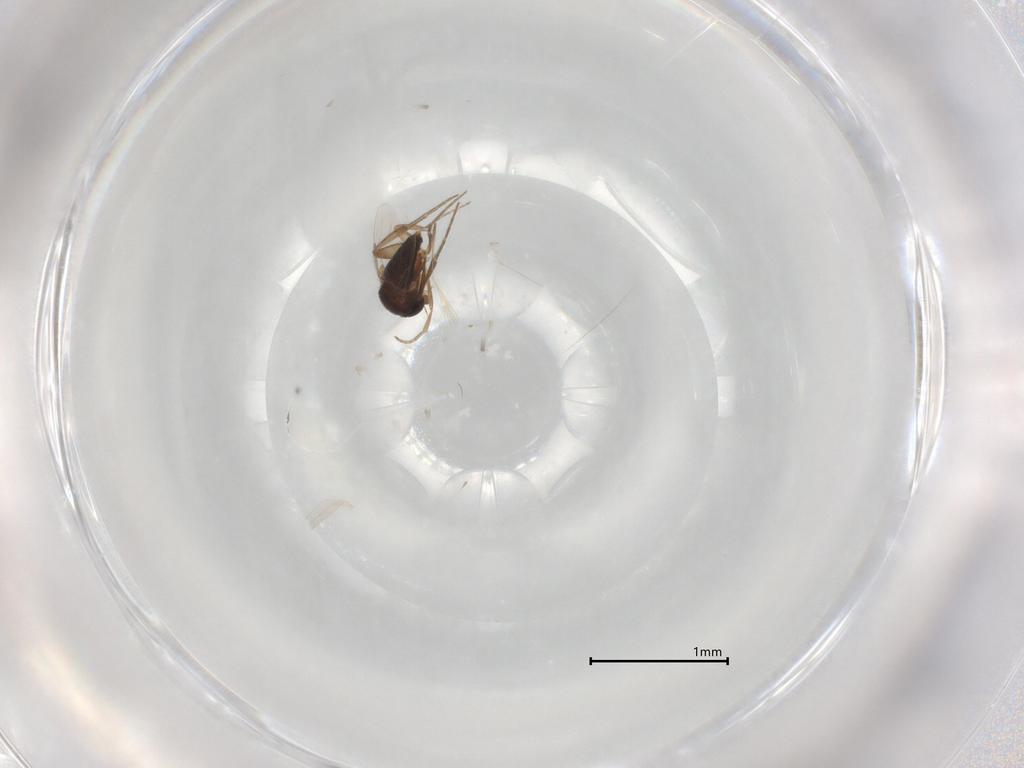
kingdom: Animalia
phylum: Arthropoda
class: Insecta
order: Diptera
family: Phoridae
